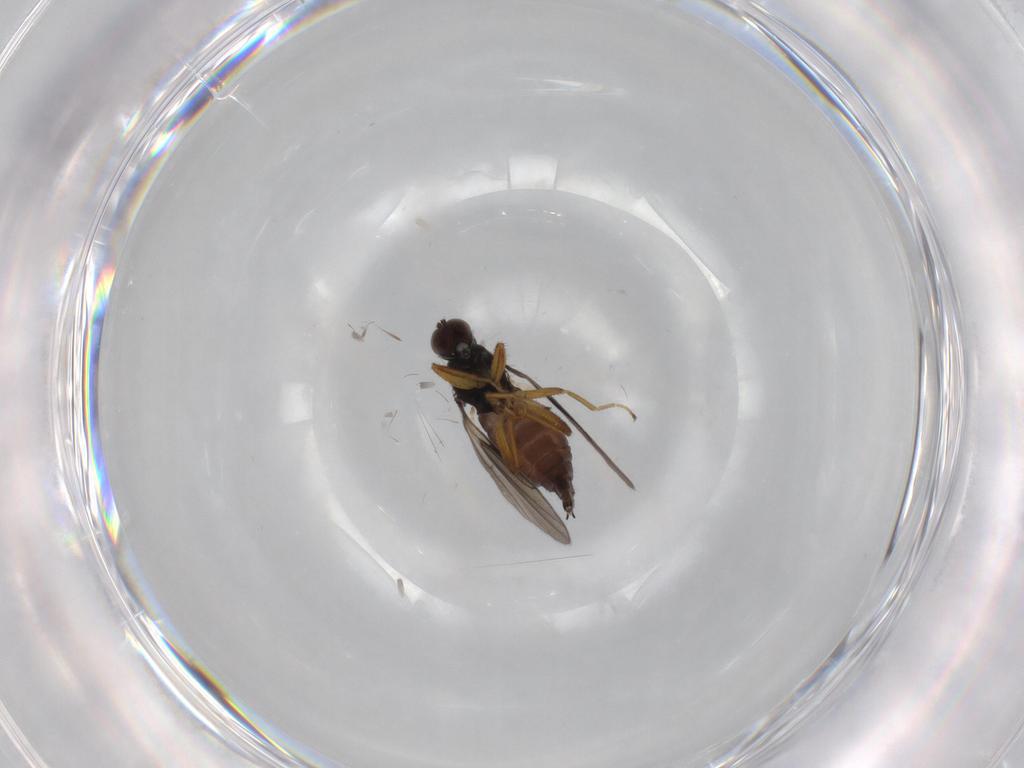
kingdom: Animalia
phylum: Arthropoda
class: Insecta
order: Diptera
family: Hybotidae
